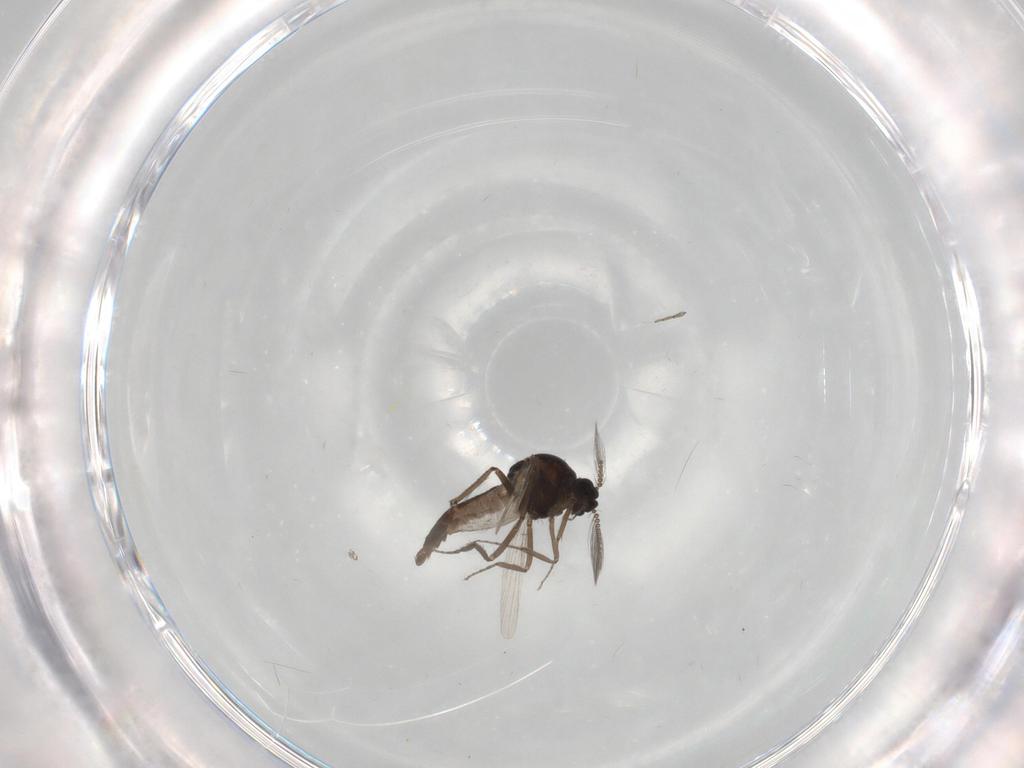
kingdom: Animalia
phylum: Arthropoda
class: Insecta
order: Diptera
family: Ceratopogonidae
